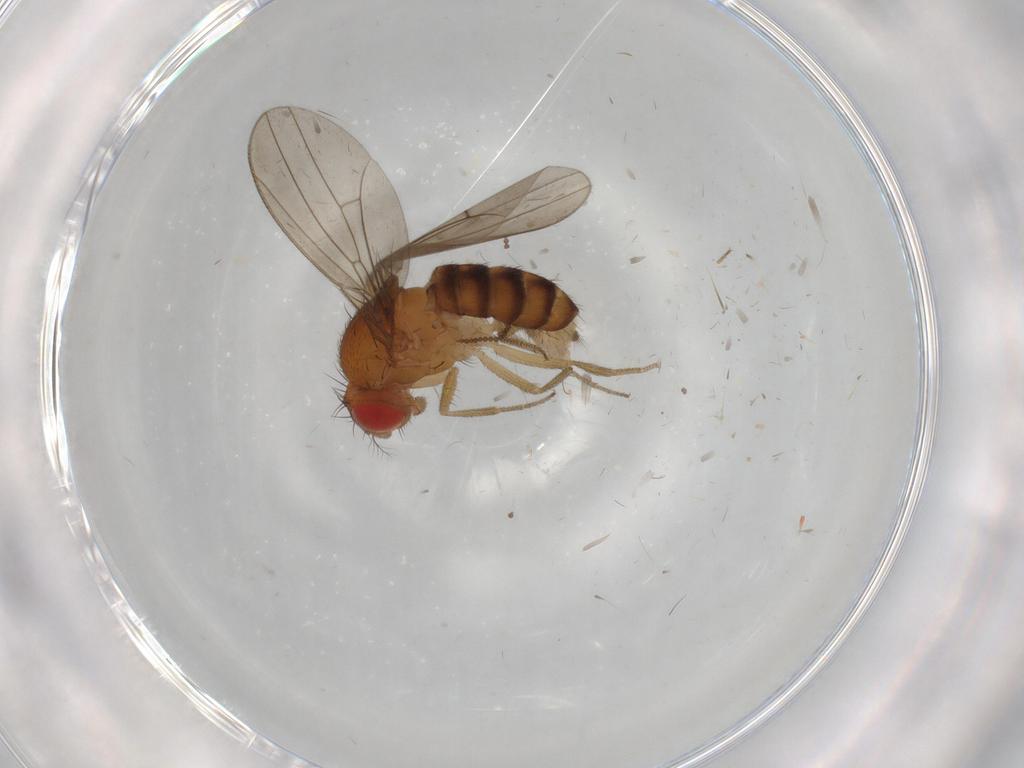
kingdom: Animalia
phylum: Arthropoda
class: Insecta
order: Diptera
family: Drosophilidae
